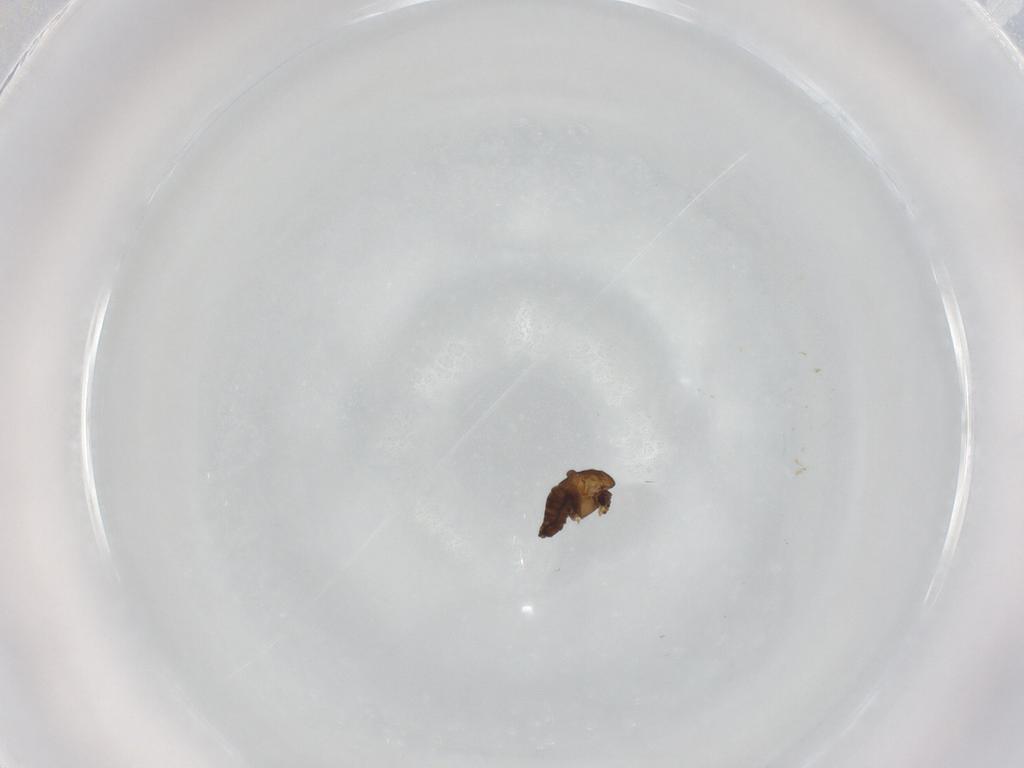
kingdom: Animalia
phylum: Arthropoda
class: Insecta
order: Diptera
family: Chironomidae
